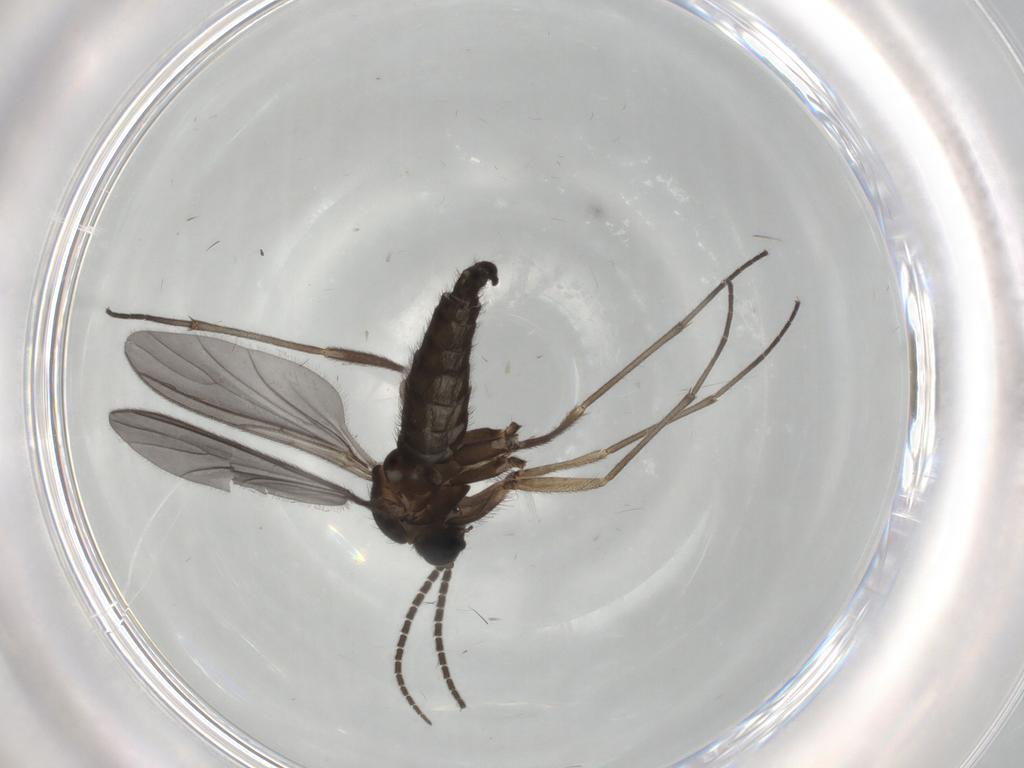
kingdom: Animalia
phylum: Arthropoda
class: Insecta
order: Diptera
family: Sciaridae
